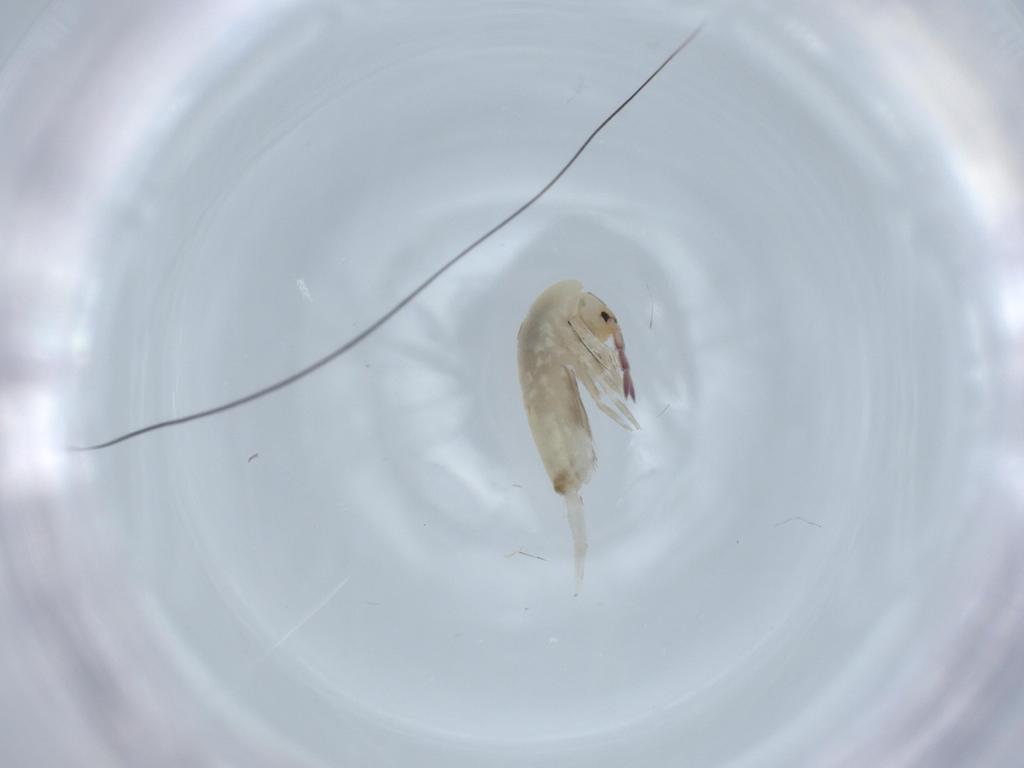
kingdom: Animalia
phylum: Arthropoda
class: Collembola
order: Entomobryomorpha
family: Entomobryidae
